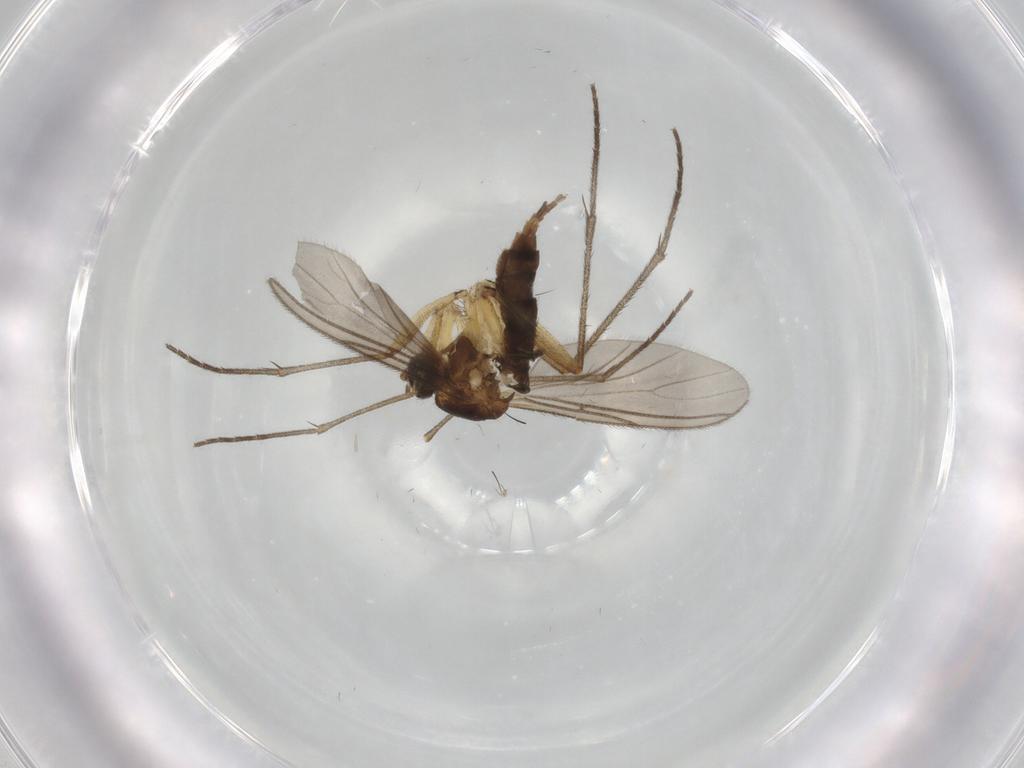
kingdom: Animalia
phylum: Arthropoda
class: Insecta
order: Diptera
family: Sciaridae
